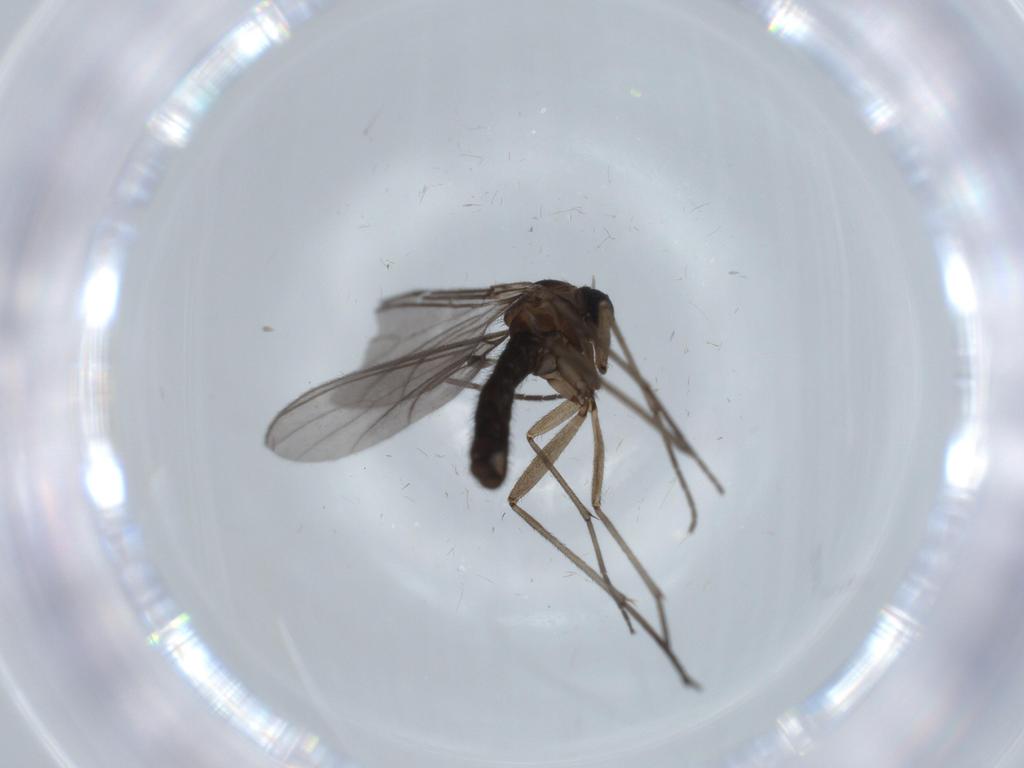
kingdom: Animalia
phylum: Arthropoda
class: Insecta
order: Diptera
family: Sciaridae
